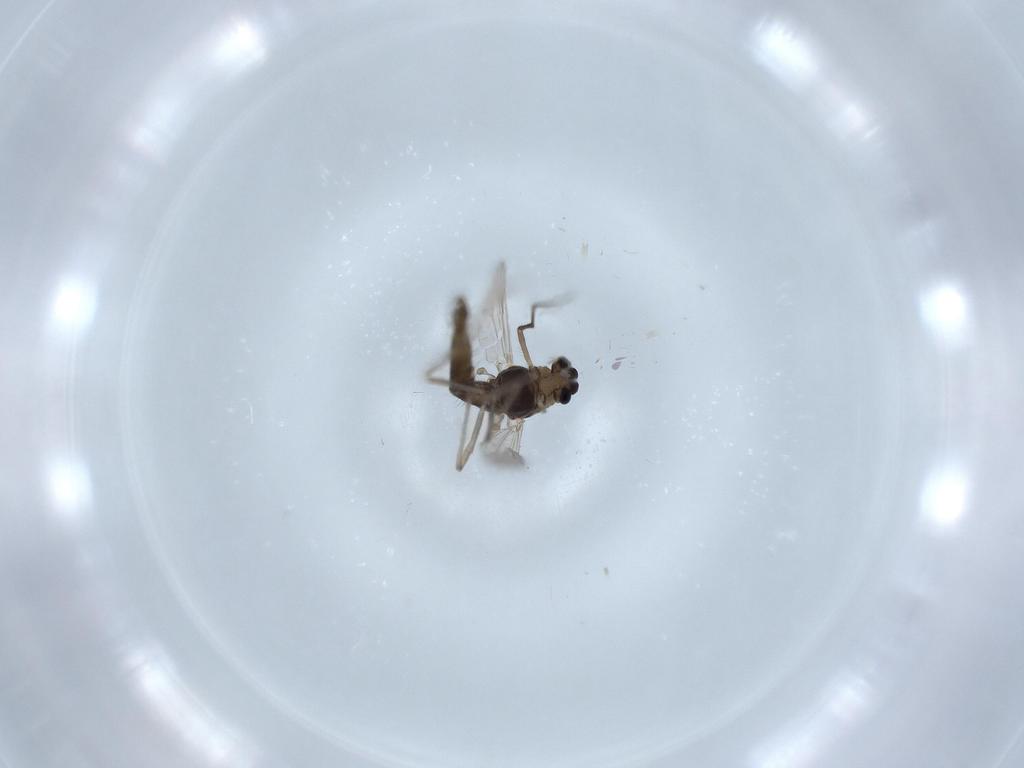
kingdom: Animalia
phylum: Arthropoda
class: Insecta
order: Diptera
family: Chironomidae
